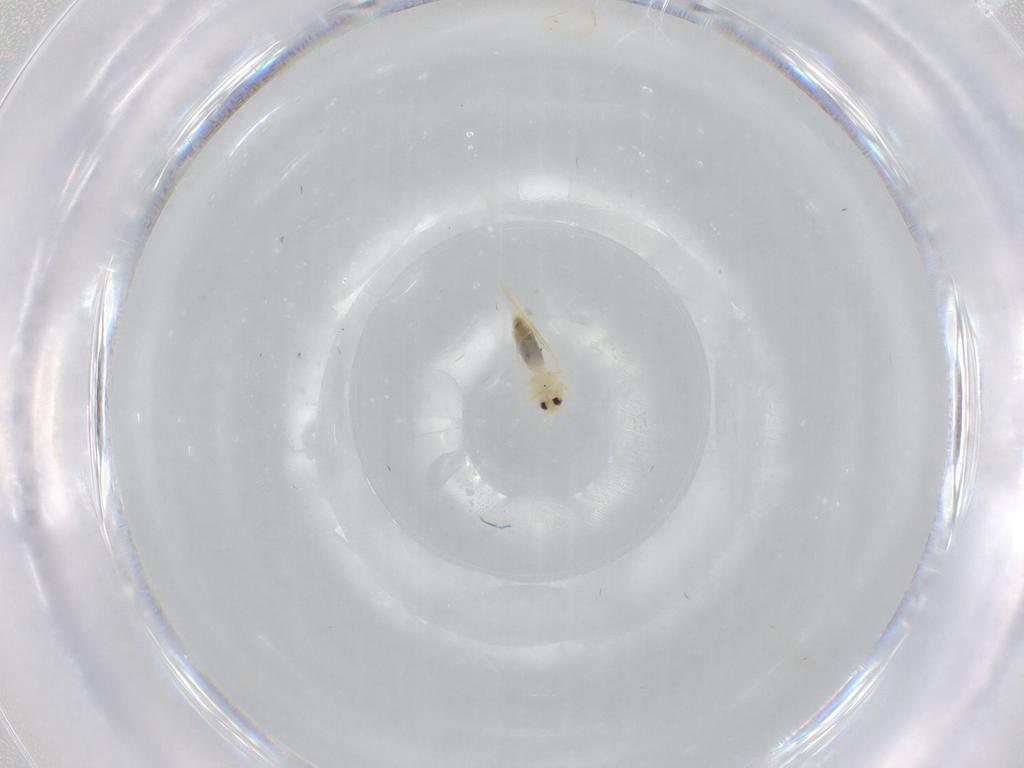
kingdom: Animalia
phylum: Arthropoda
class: Insecta
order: Hemiptera
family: Aleyrodidae
